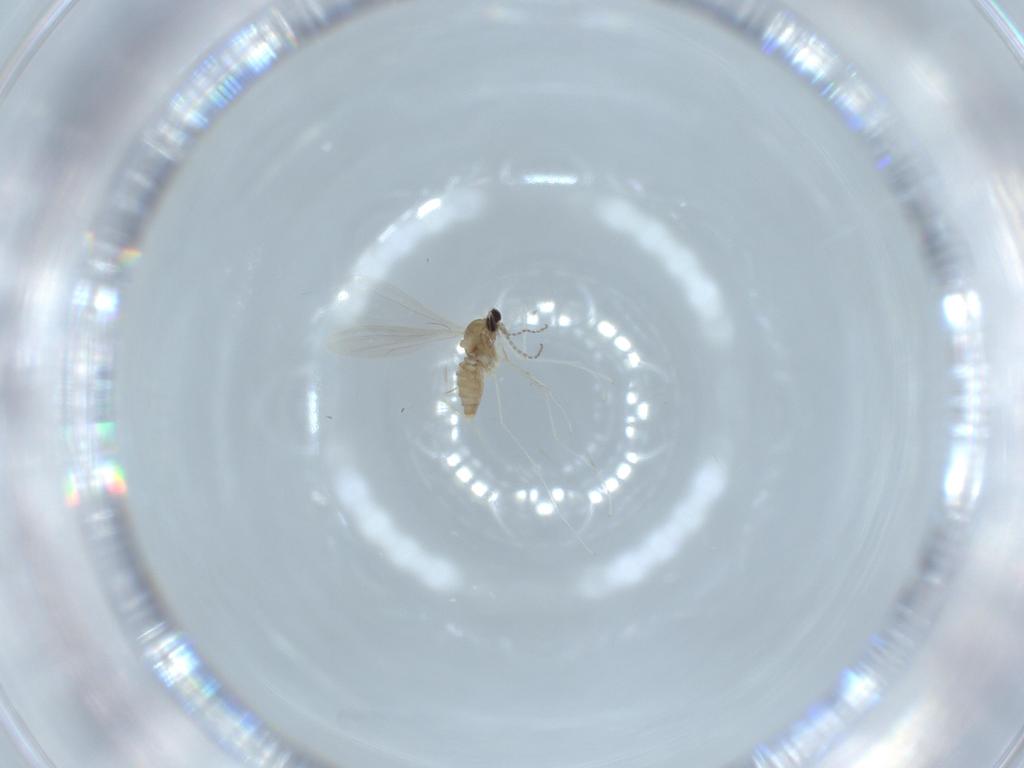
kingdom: Animalia
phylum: Arthropoda
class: Insecta
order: Diptera
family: Cecidomyiidae
